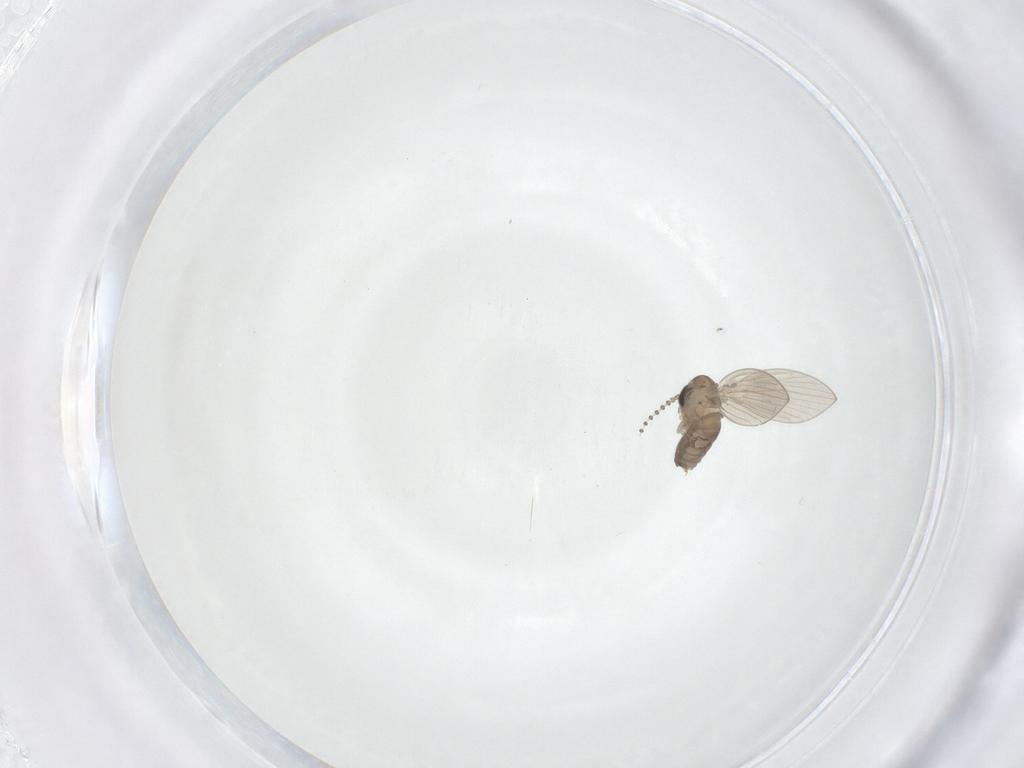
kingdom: Animalia
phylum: Arthropoda
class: Insecta
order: Diptera
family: Psychodidae
